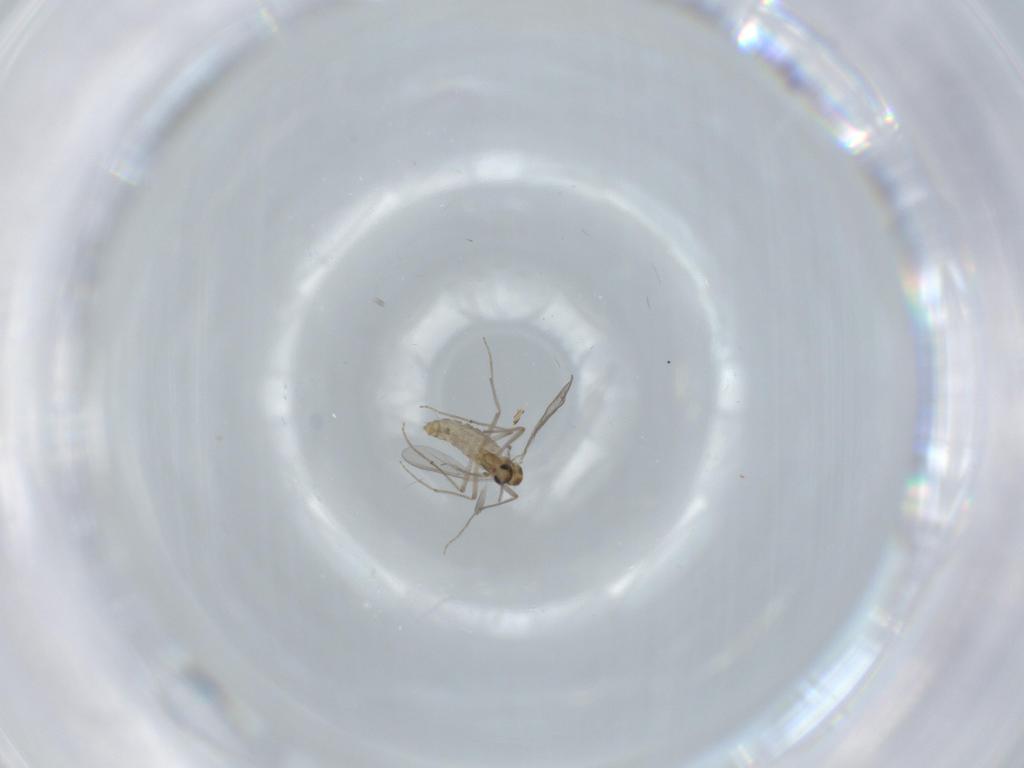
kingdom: Animalia
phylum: Arthropoda
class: Insecta
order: Diptera
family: Chironomidae
